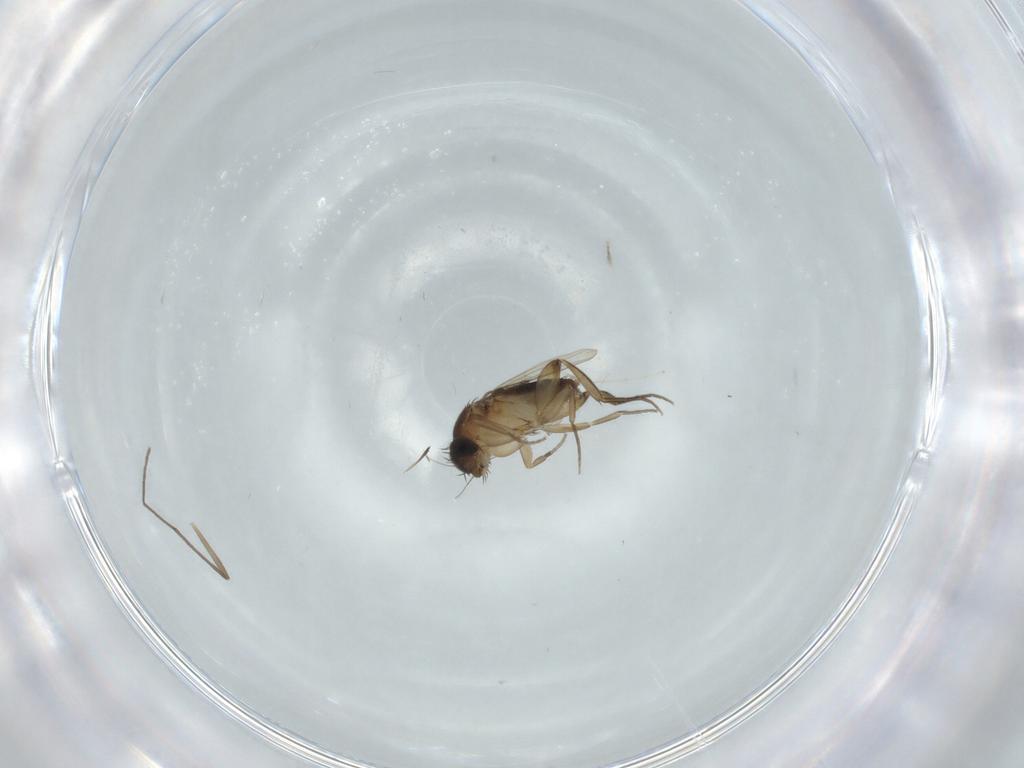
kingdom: Animalia
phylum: Arthropoda
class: Insecta
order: Diptera
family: Phoridae
